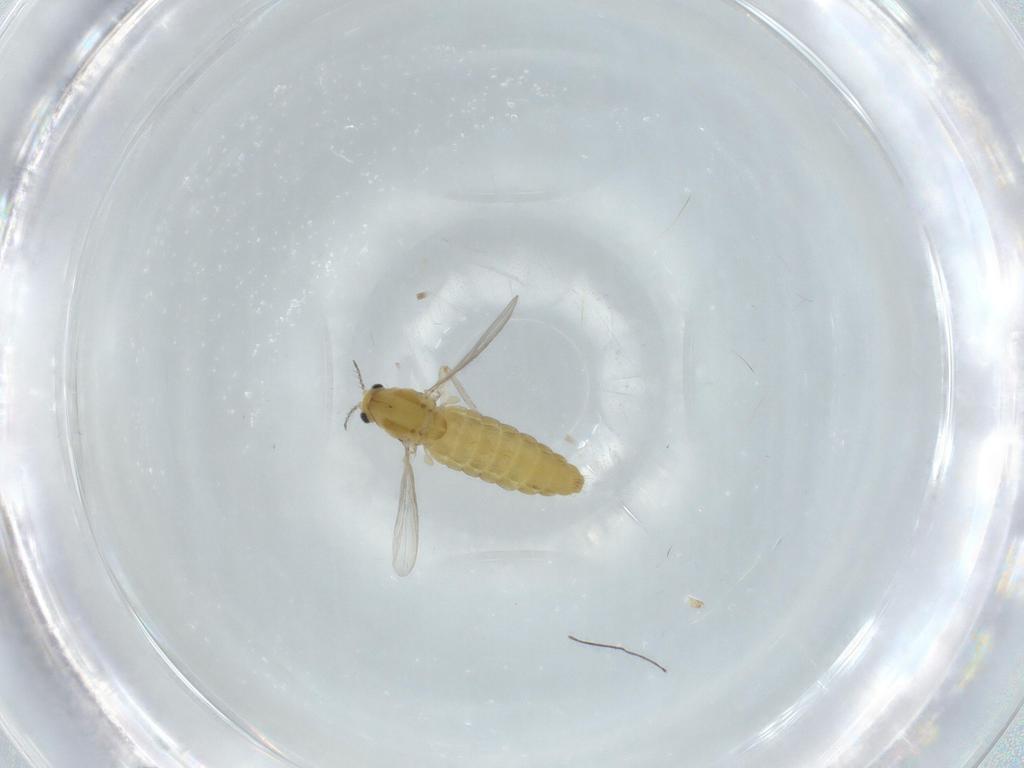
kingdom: Animalia
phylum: Arthropoda
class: Insecta
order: Diptera
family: Chironomidae
